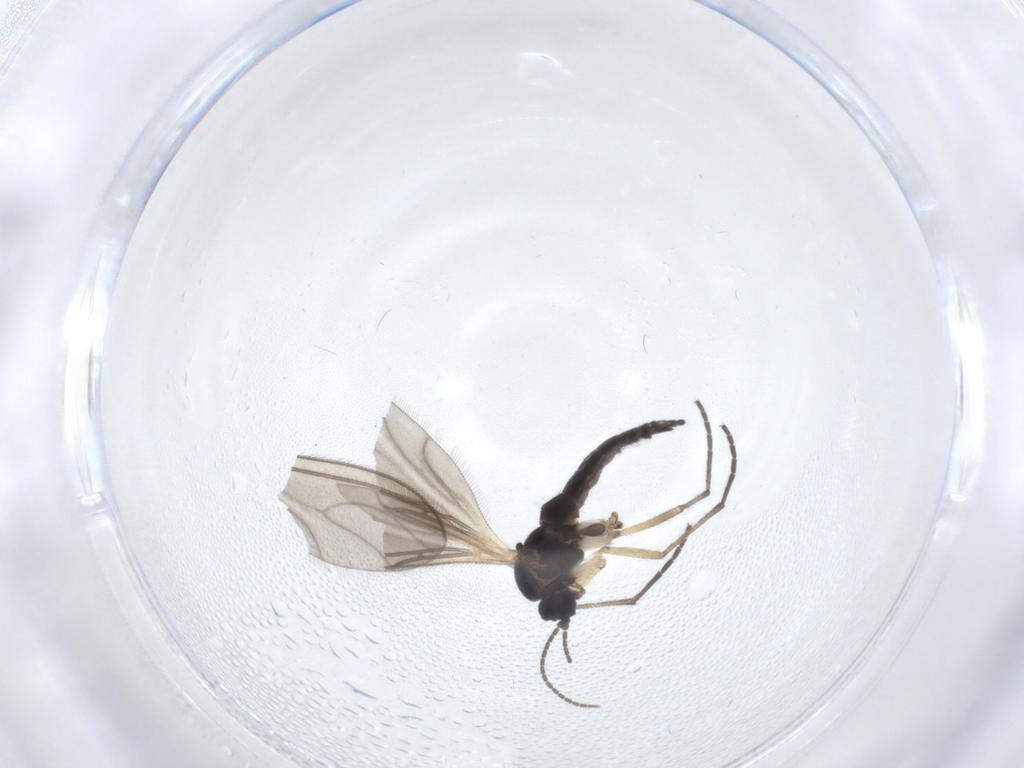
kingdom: Animalia
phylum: Arthropoda
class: Insecta
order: Diptera
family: Sciaridae
